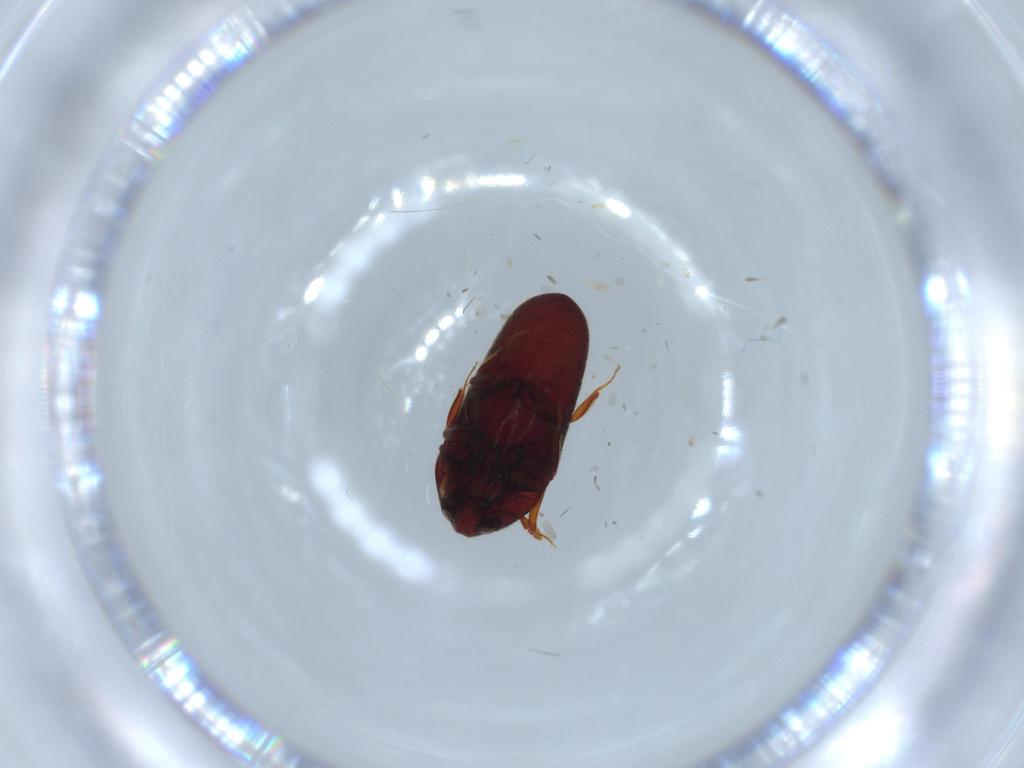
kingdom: Animalia
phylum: Arthropoda
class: Insecta
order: Coleoptera
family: Throscidae
